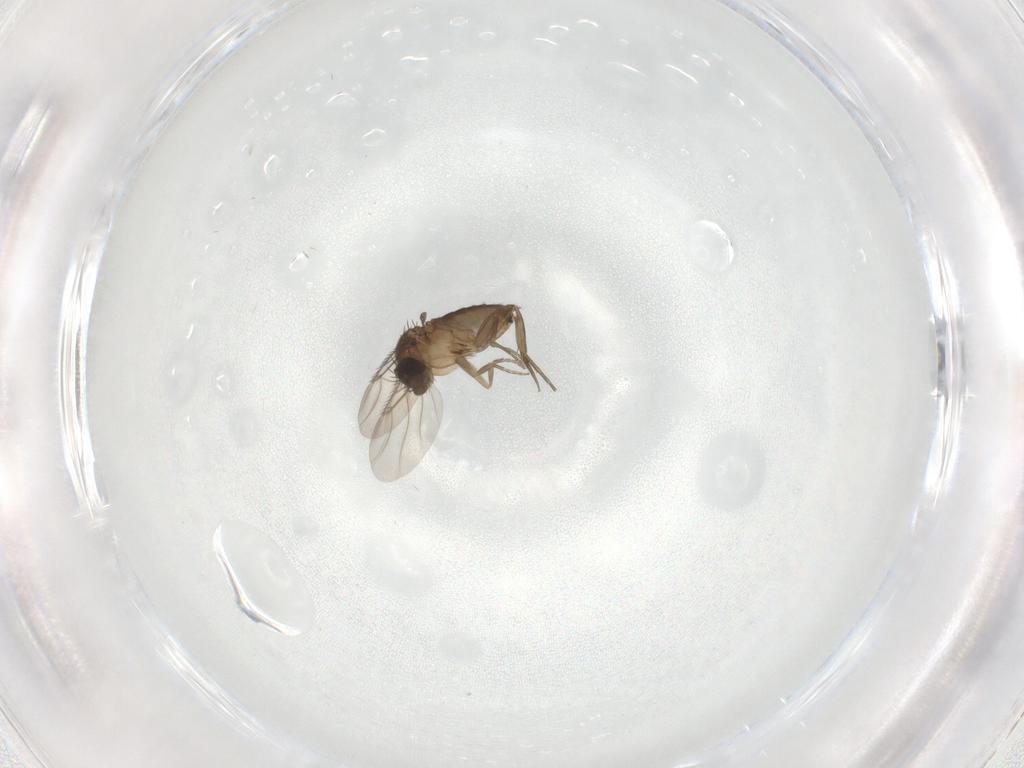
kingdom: Animalia
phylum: Arthropoda
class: Insecta
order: Diptera
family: Phoridae
